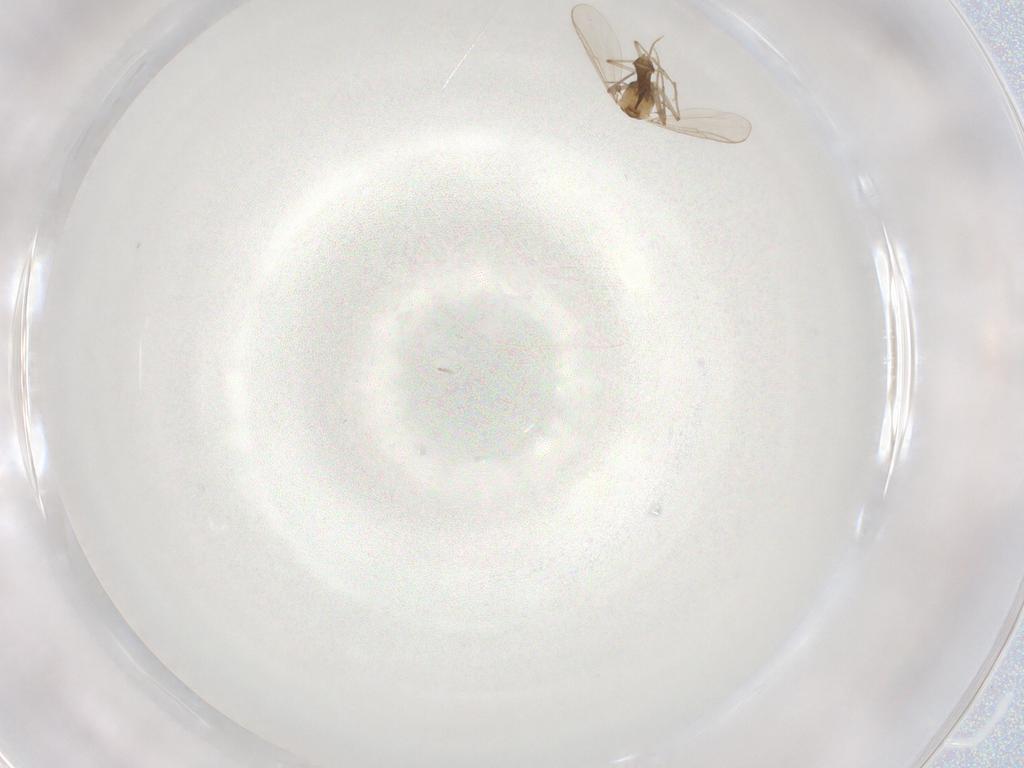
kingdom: Animalia
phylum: Arthropoda
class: Insecta
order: Diptera
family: Chironomidae
